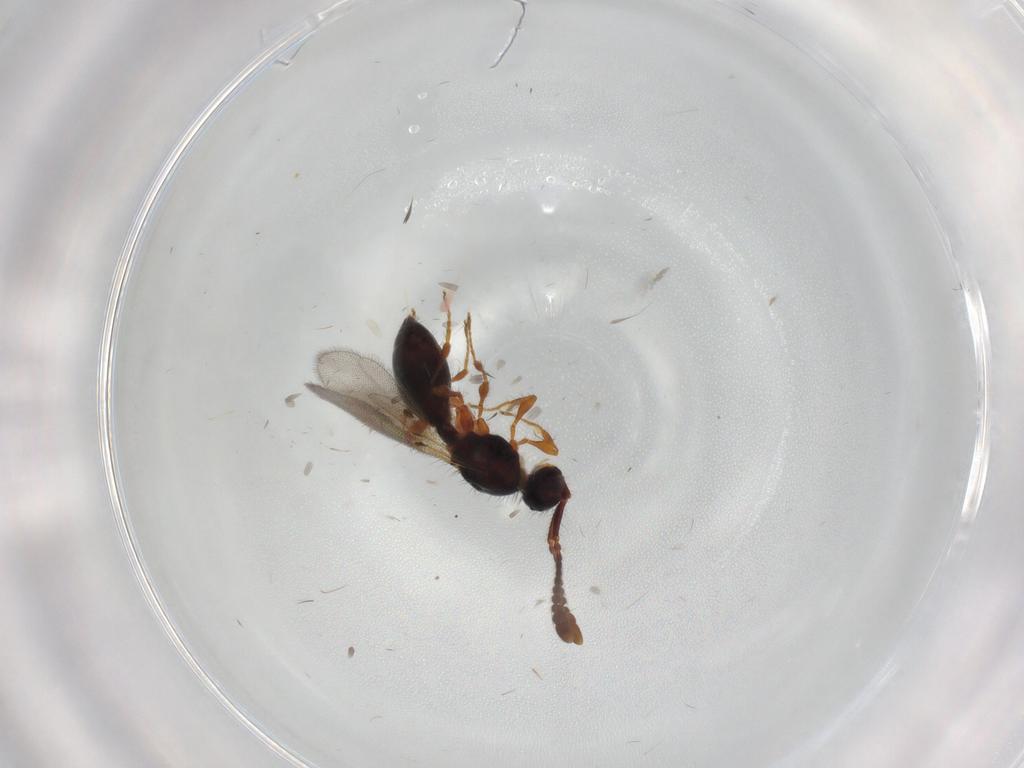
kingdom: Animalia
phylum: Arthropoda
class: Insecta
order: Hymenoptera
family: Diapriidae
